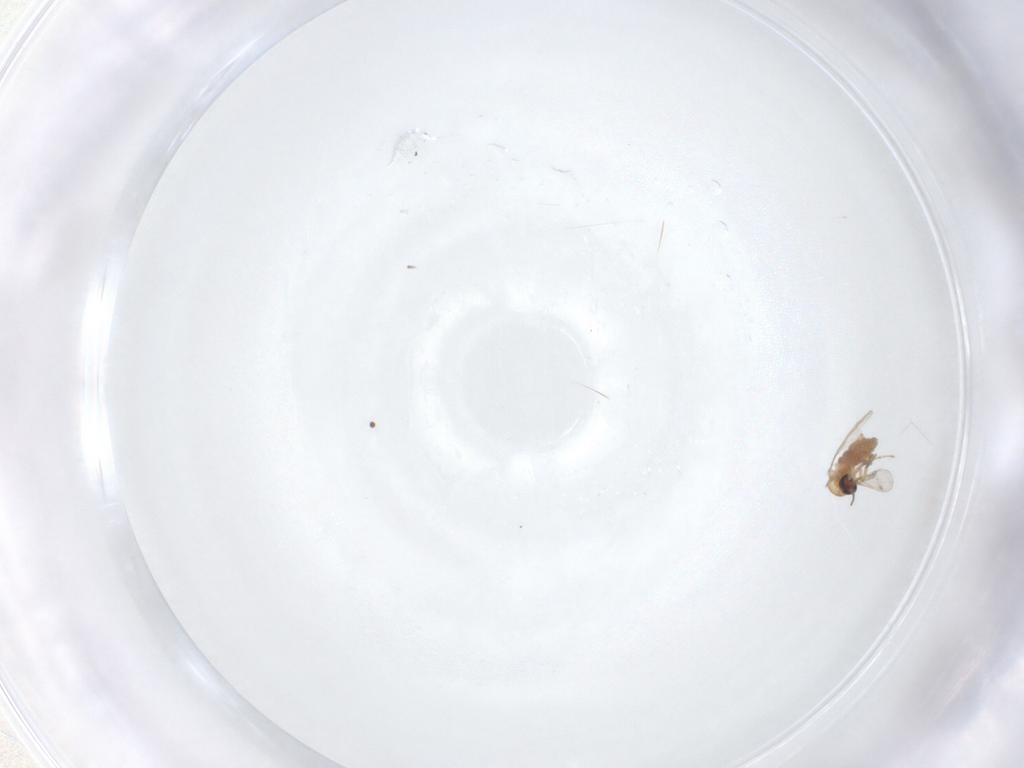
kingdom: Animalia
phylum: Arthropoda
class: Insecta
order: Diptera
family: Ceratopogonidae
